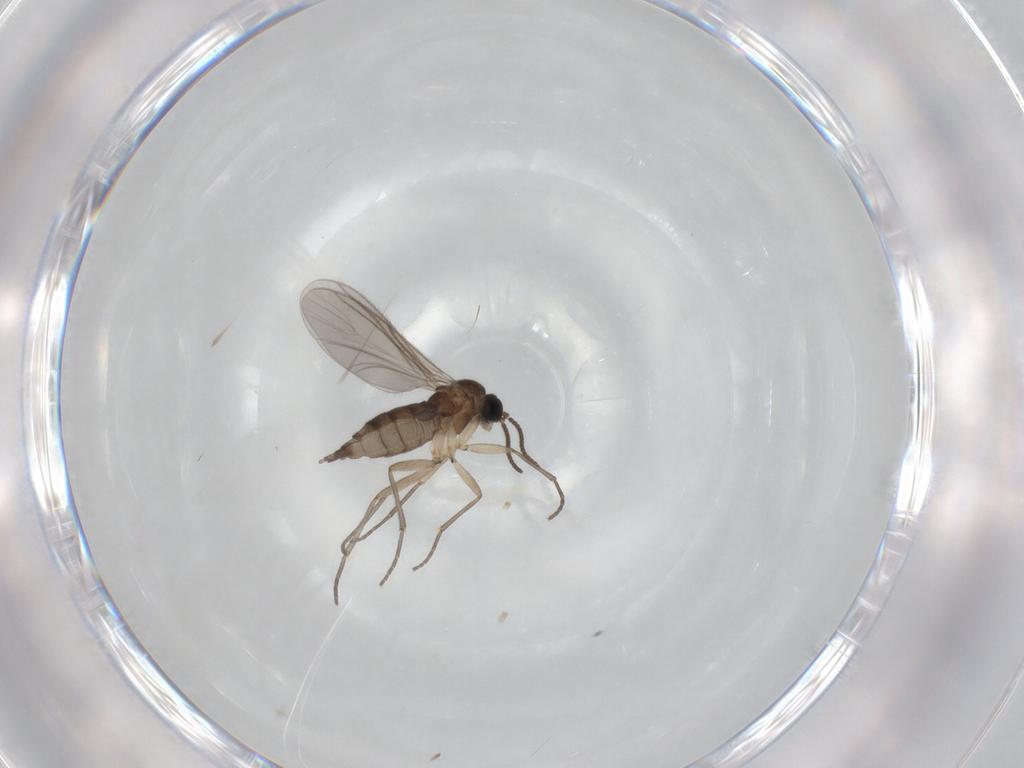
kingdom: Animalia
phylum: Arthropoda
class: Insecta
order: Diptera
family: Sciaridae
